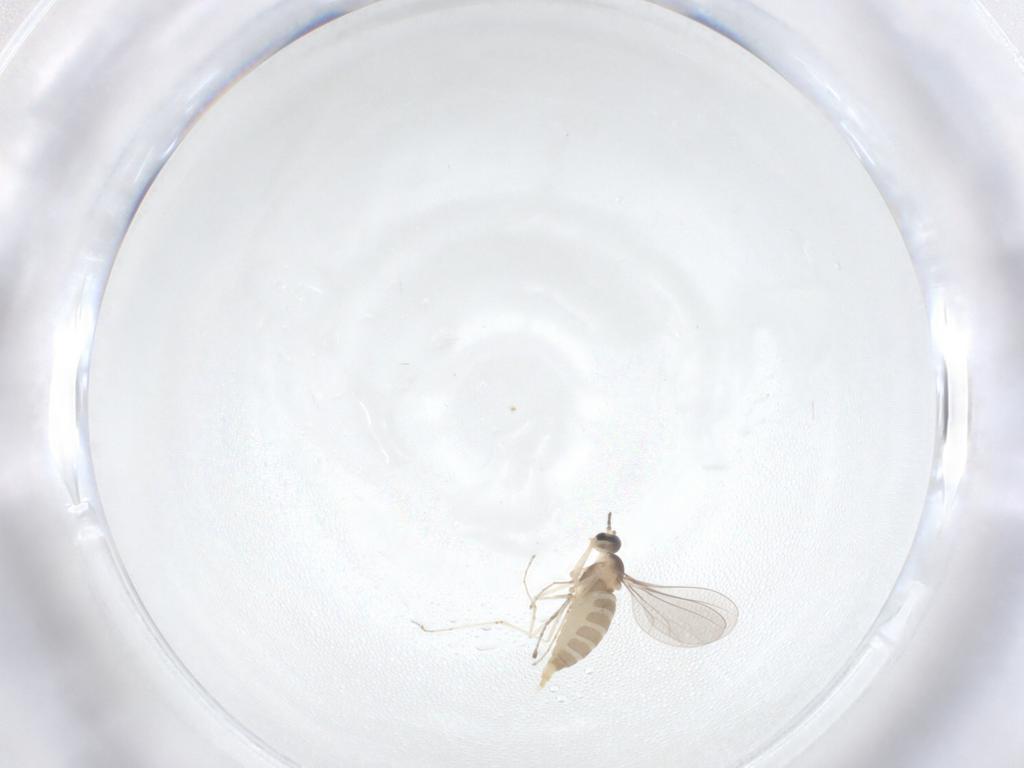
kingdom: Animalia
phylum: Arthropoda
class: Insecta
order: Diptera
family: Cecidomyiidae
